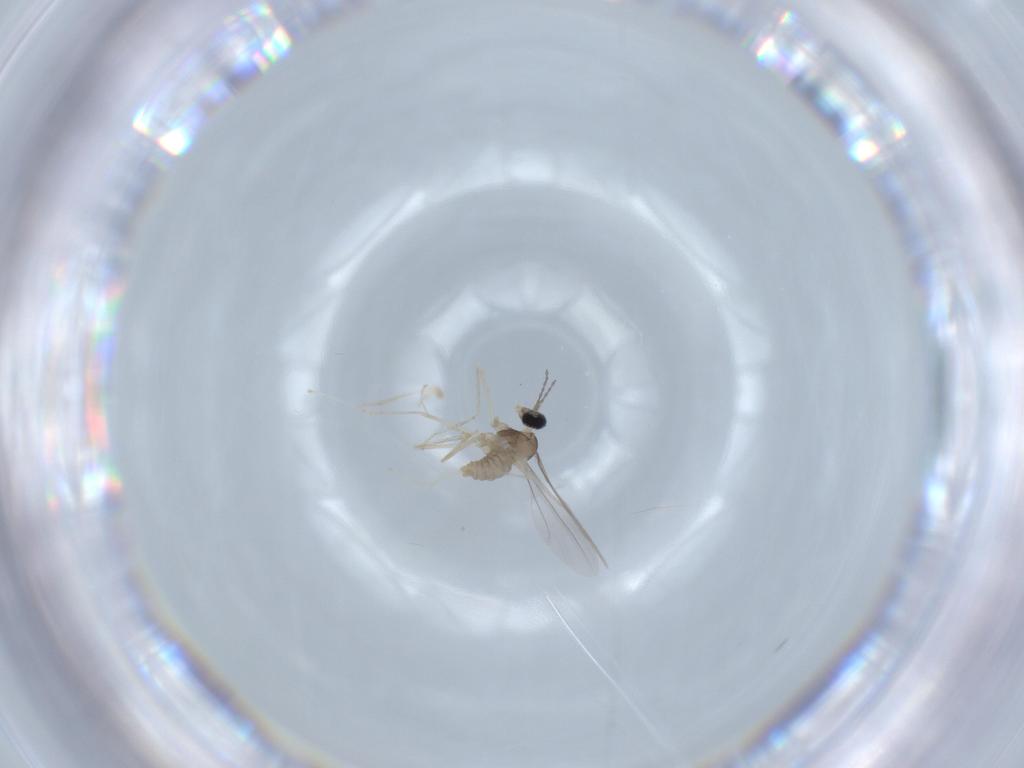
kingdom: Animalia
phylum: Arthropoda
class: Insecta
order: Diptera
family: Cecidomyiidae
